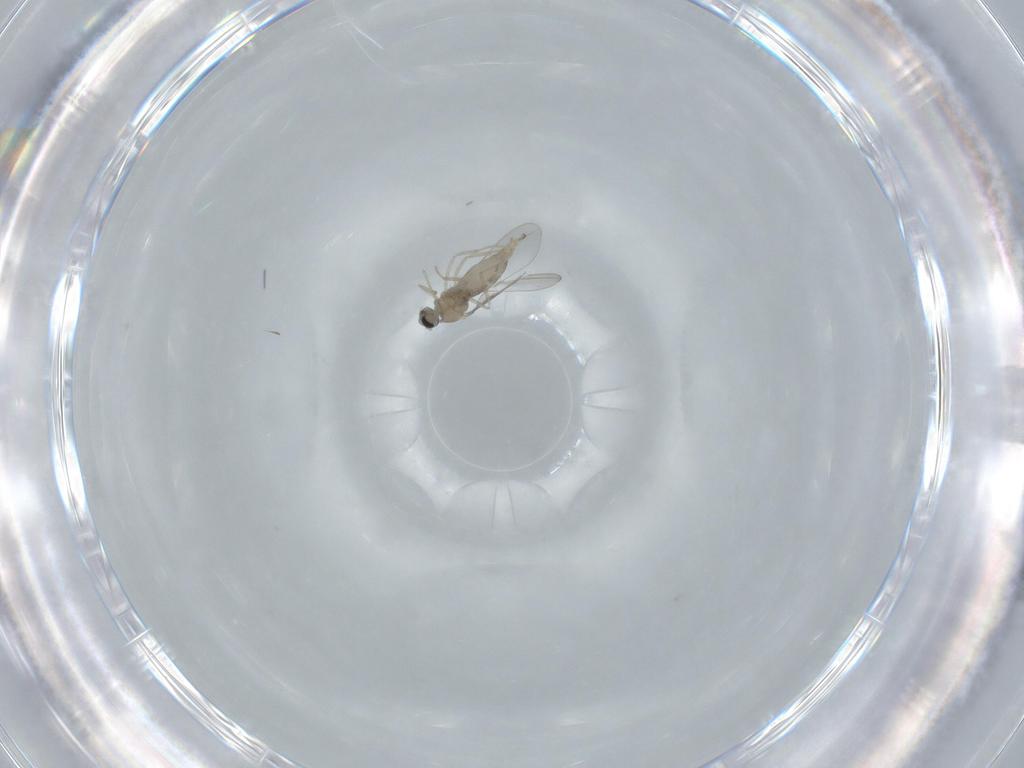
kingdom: Animalia
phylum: Arthropoda
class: Insecta
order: Diptera
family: Cecidomyiidae
